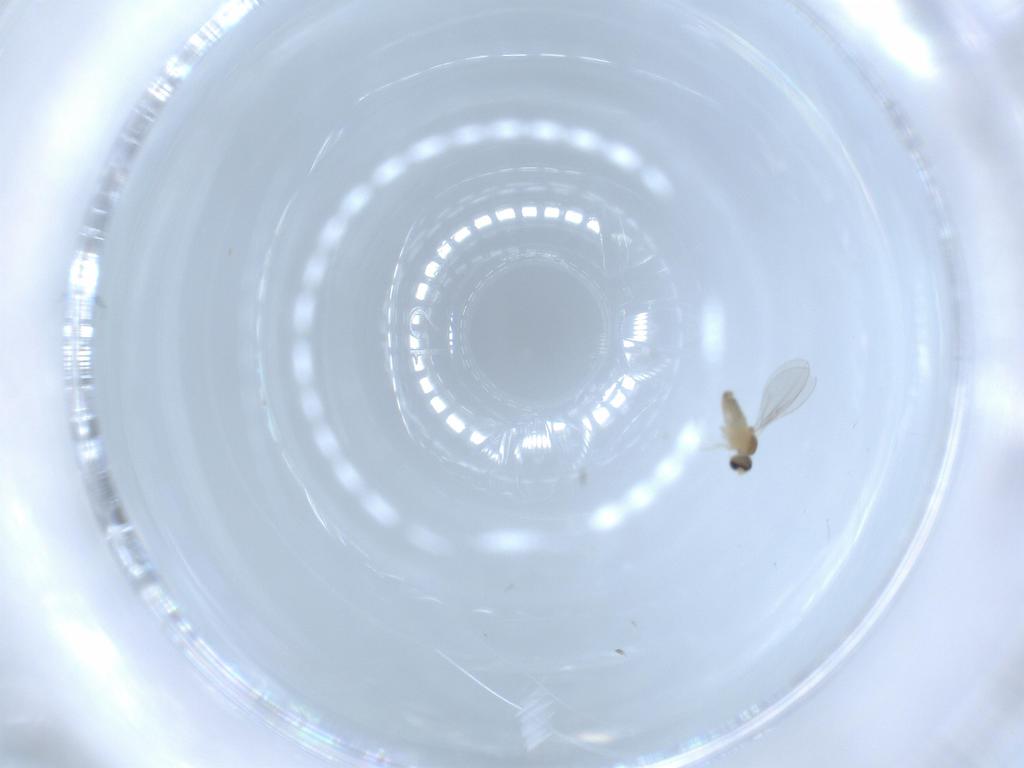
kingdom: Animalia
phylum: Arthropoda
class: Insecta
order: Diptera
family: Cecidomyiidae
